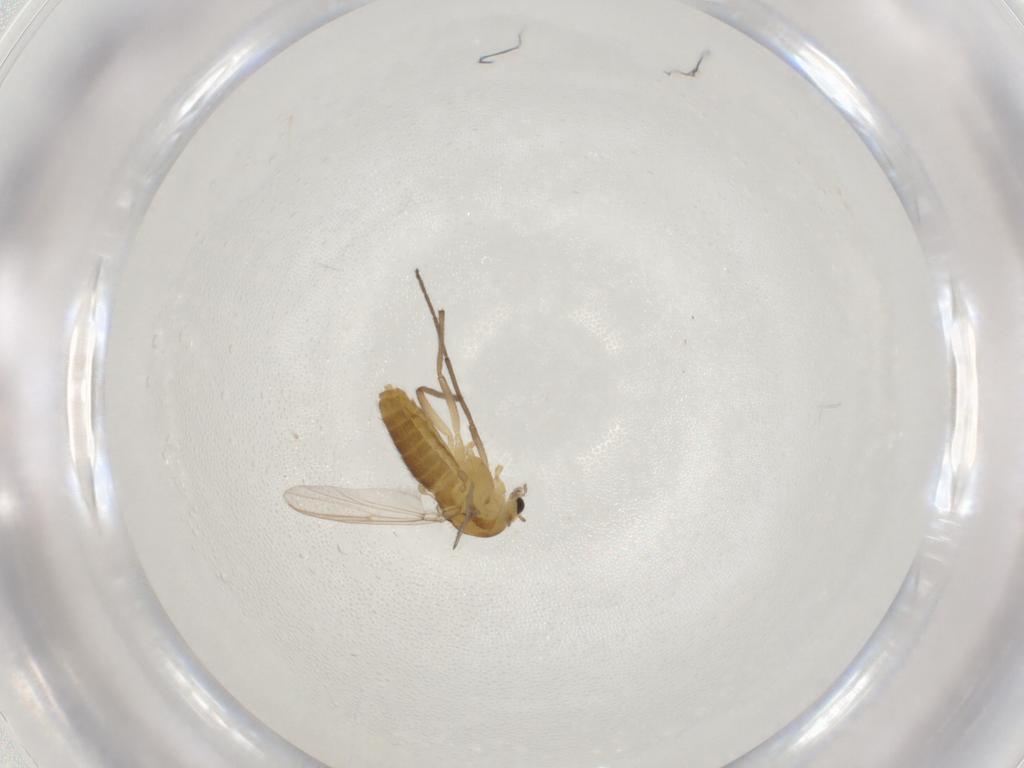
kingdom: Animalia
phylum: Arthropoda
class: Insecta
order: Diptera
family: Chironomidae
